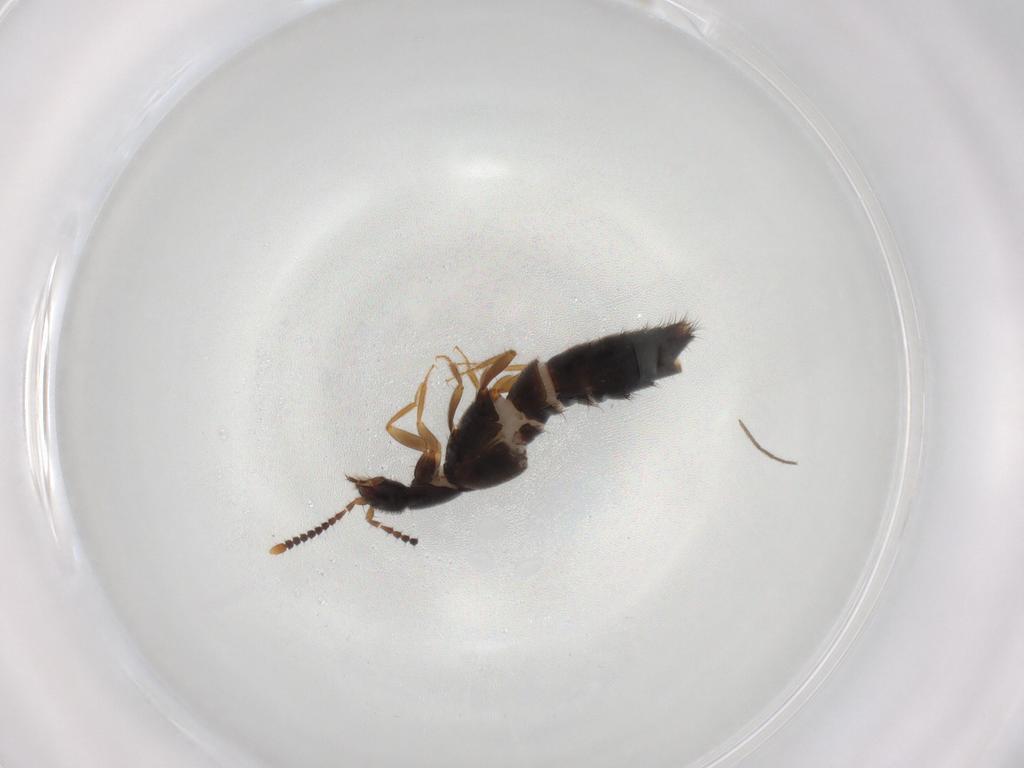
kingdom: Animalia
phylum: Arthropoda
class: Insecta
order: Coleoptera
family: Staphylinidae
